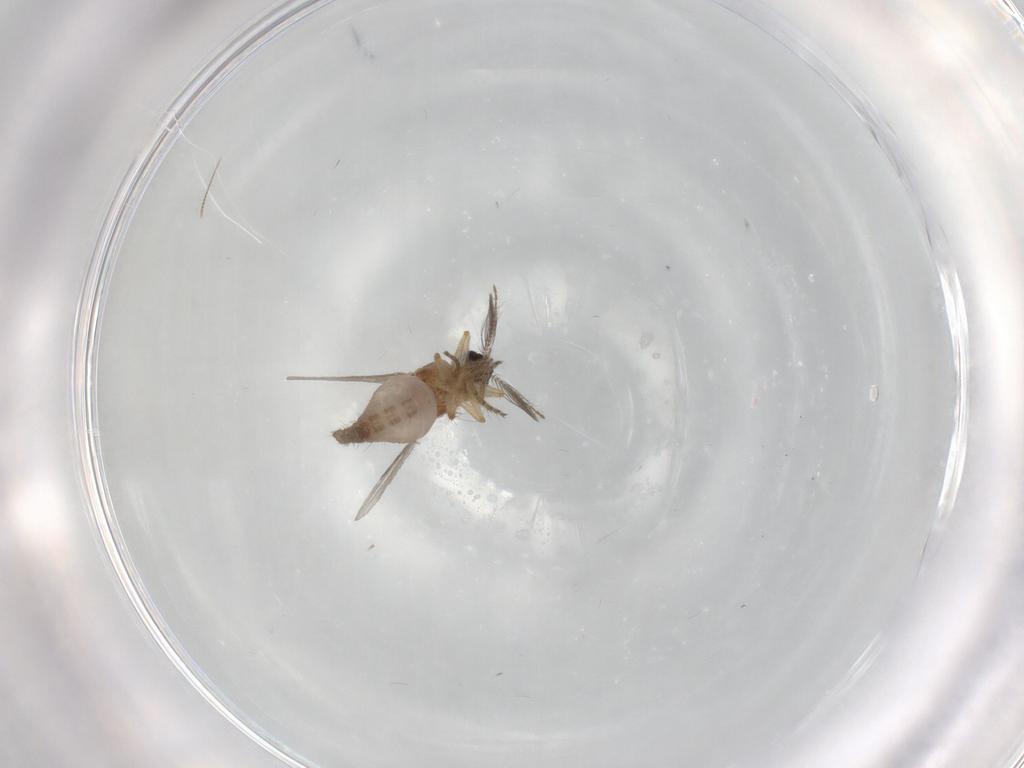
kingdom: Animalia
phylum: Arthropoda
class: Insecta
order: Diptera
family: Ceratopogonidae
